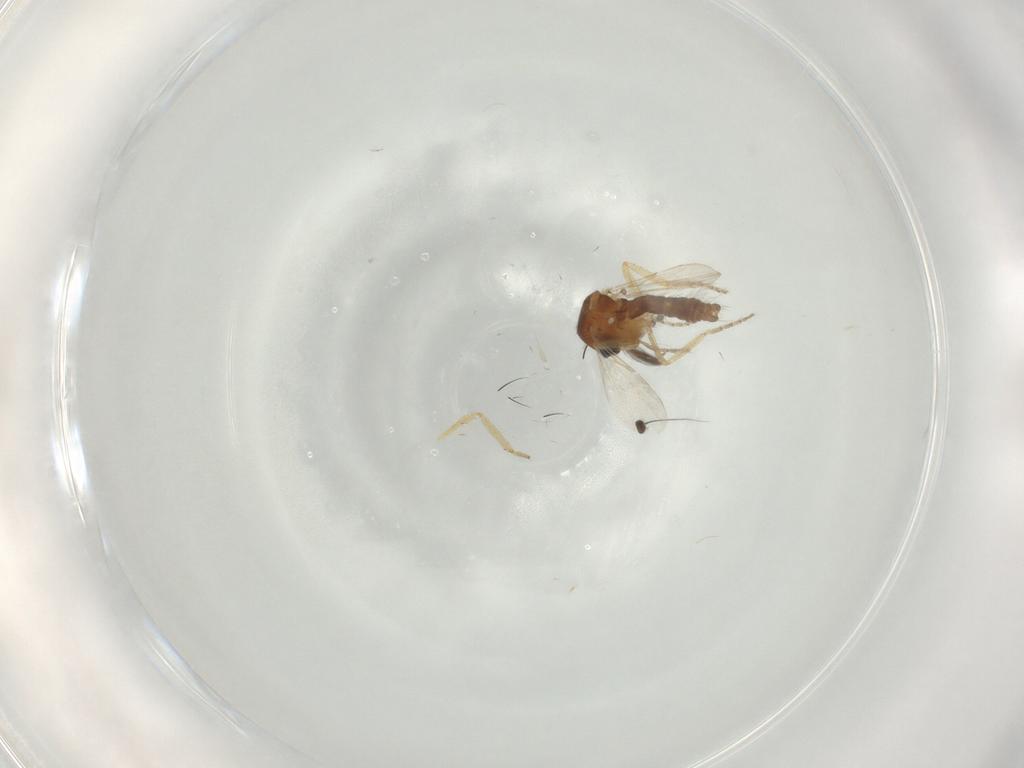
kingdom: Animalia
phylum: Arthropoda
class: Insecta
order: Diptera
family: Ceratopogonidae
